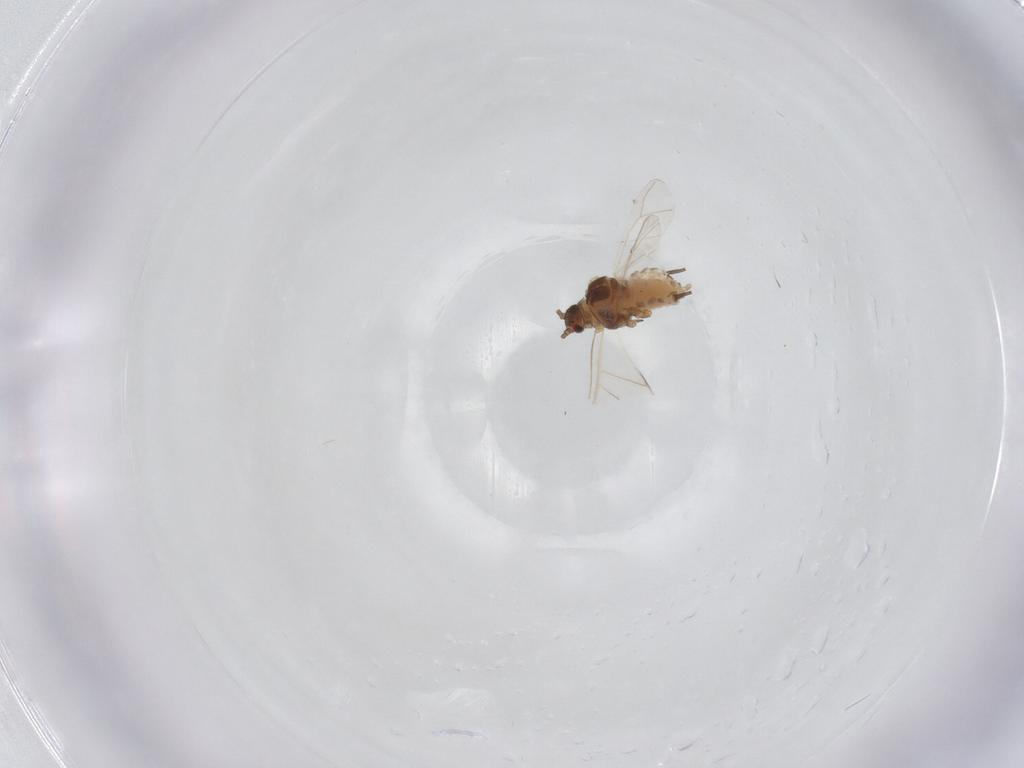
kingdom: Animalia
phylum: Arthropoda
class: Insecta
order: Hemiptera
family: Aphididae
